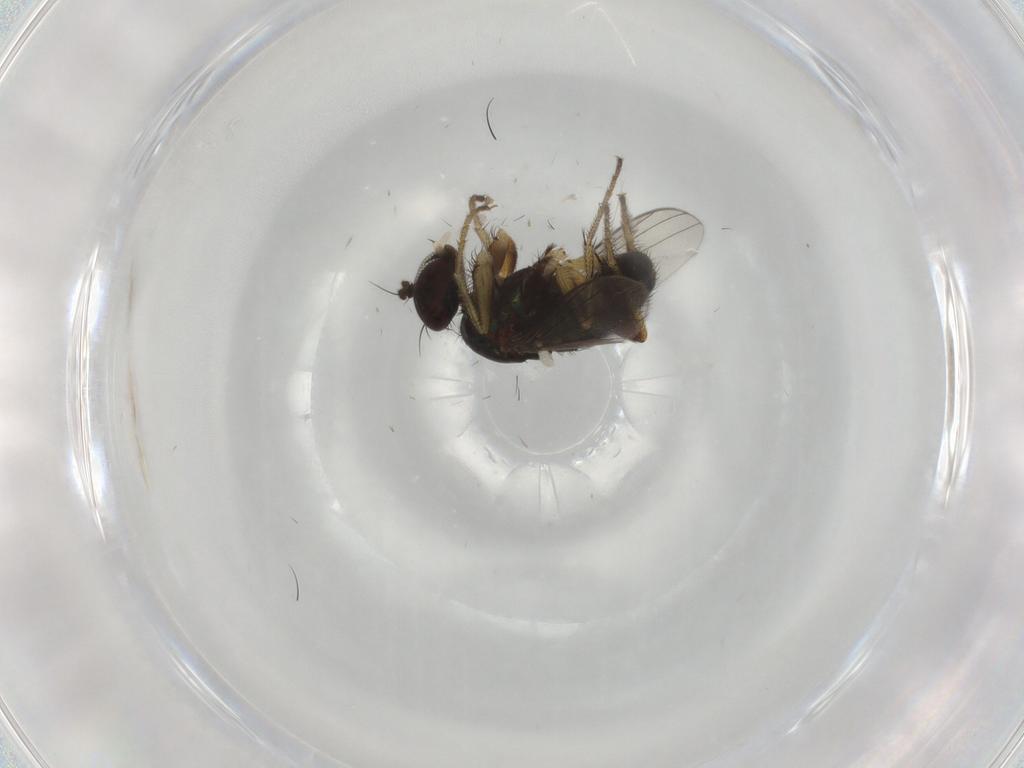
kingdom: Animalia
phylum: Arthropoda
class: Insecta
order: Diptera
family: Dolichopodidae
